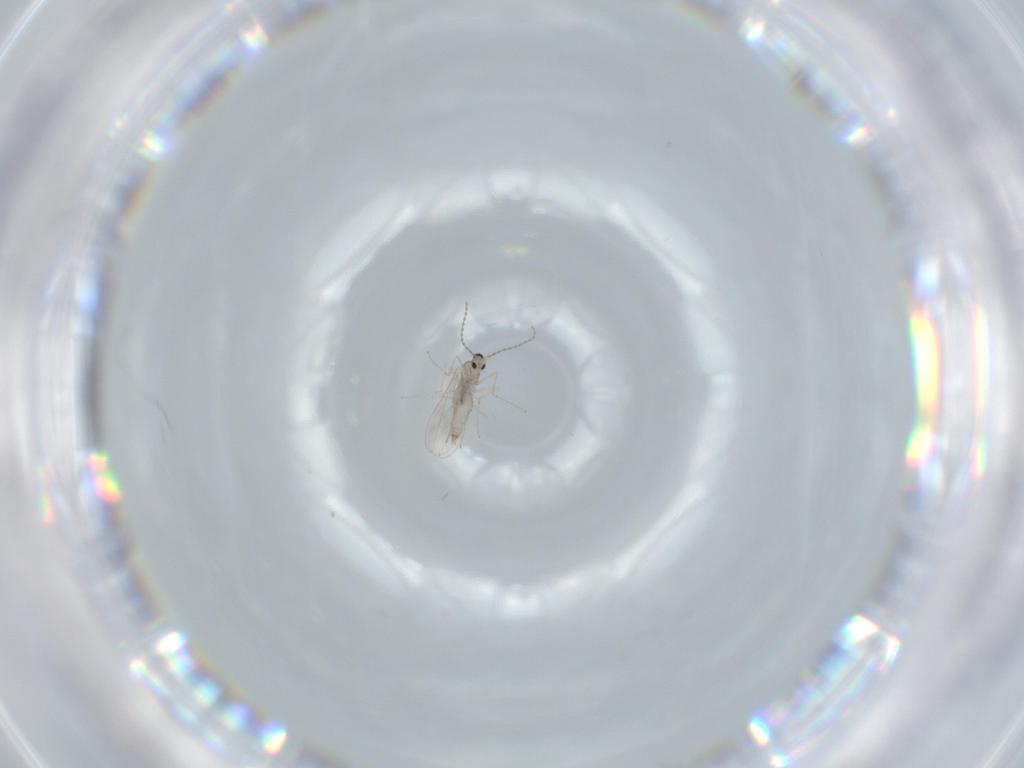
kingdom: Animalia
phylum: Arthropoda
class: Insecta
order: Diptera
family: Cecidomyiidae
